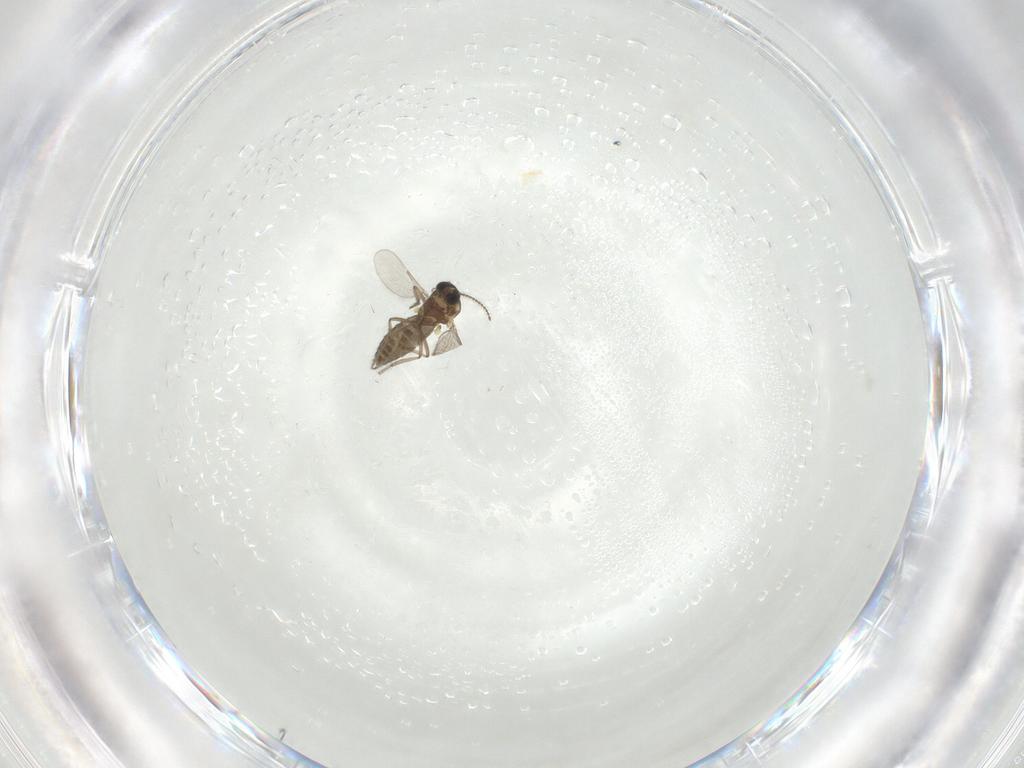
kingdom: Animalia
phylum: Arthropoda
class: Insecta
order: Diptera
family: Ceratopogonidae
